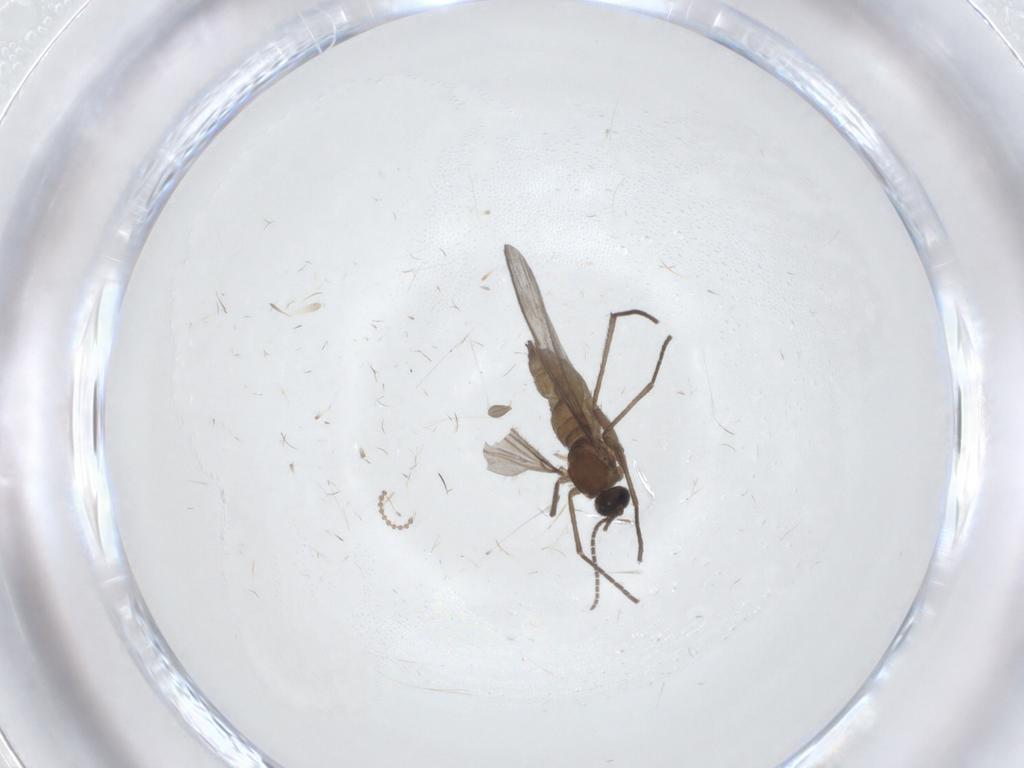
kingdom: Animalia
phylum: Arthropoda
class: Insecta
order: Diptera
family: Sciaridae
